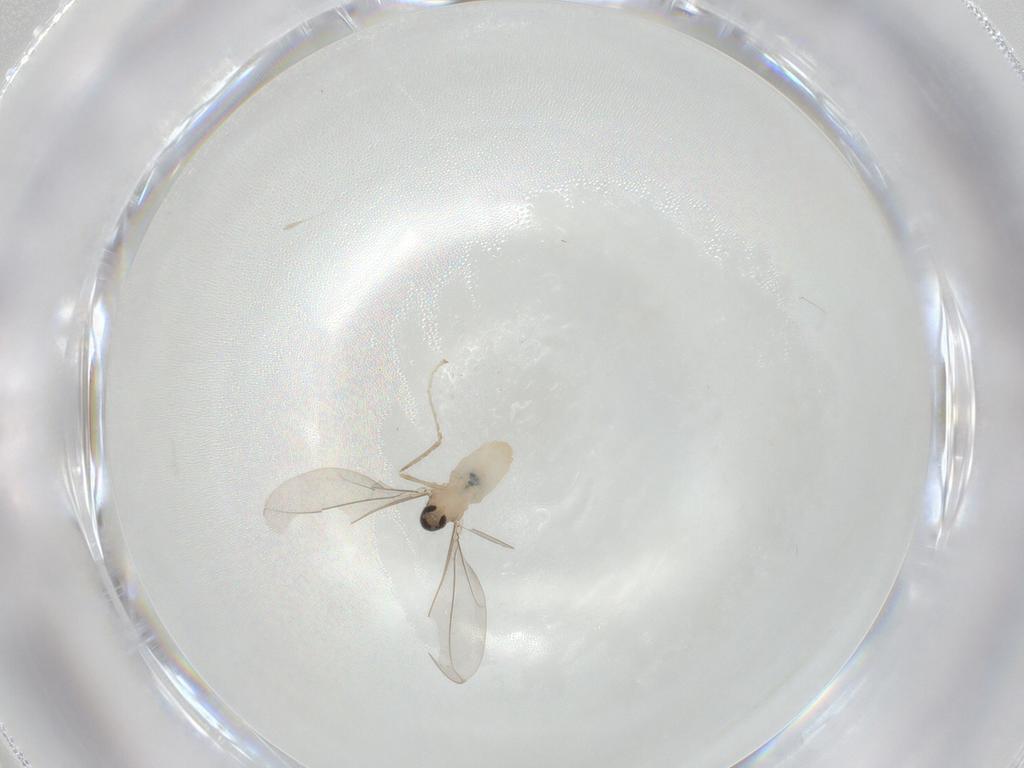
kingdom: Animalia
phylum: Arthropoda
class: Insecta
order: Diptera
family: Cecidomyiidae
